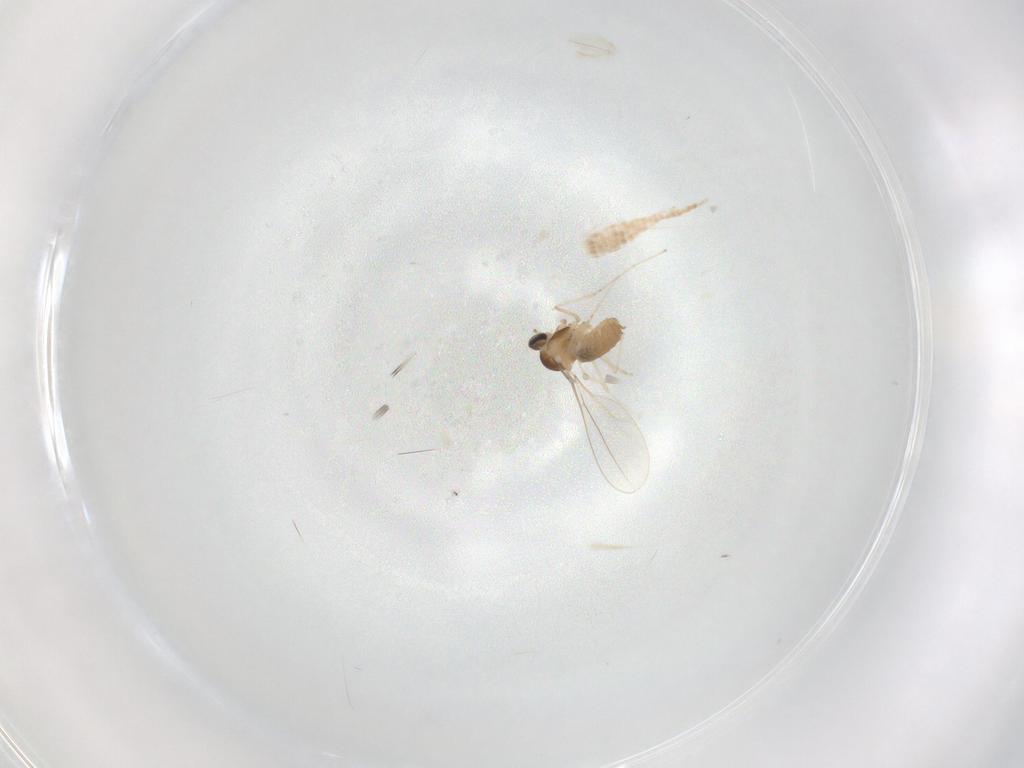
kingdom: Animalia
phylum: Arthropoda
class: Insecta
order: Diptera
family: Cecidomyiidae
